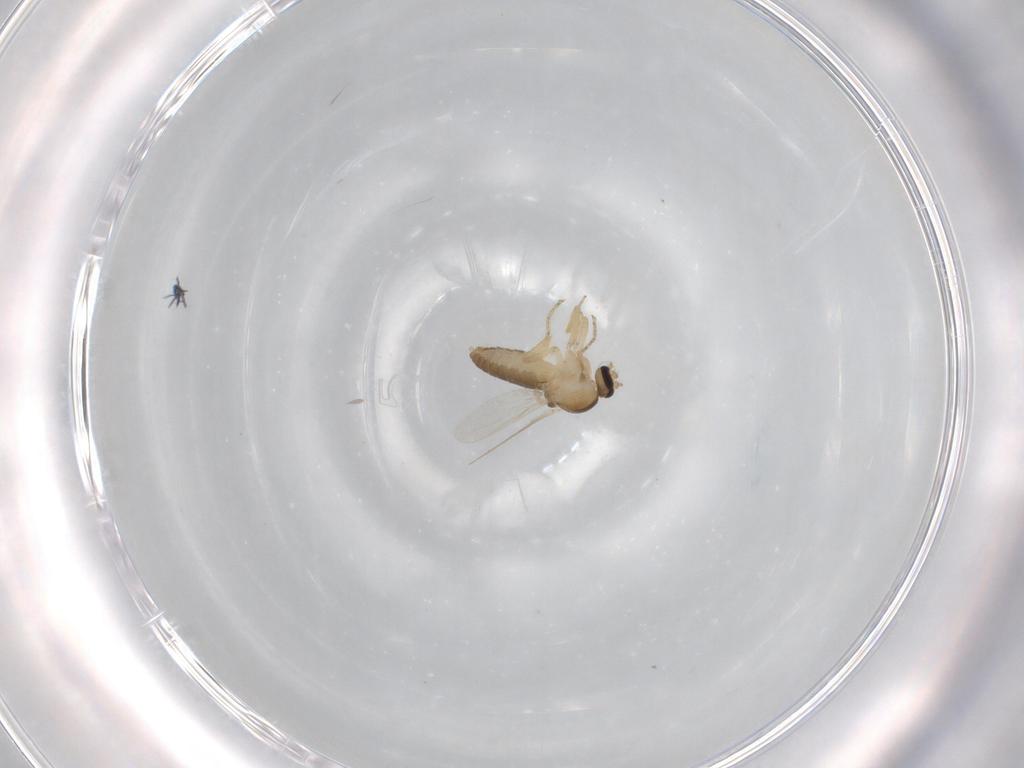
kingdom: Animalia
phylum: Arthropoda
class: Insecta
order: Diptera
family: Ceratopogonidae
